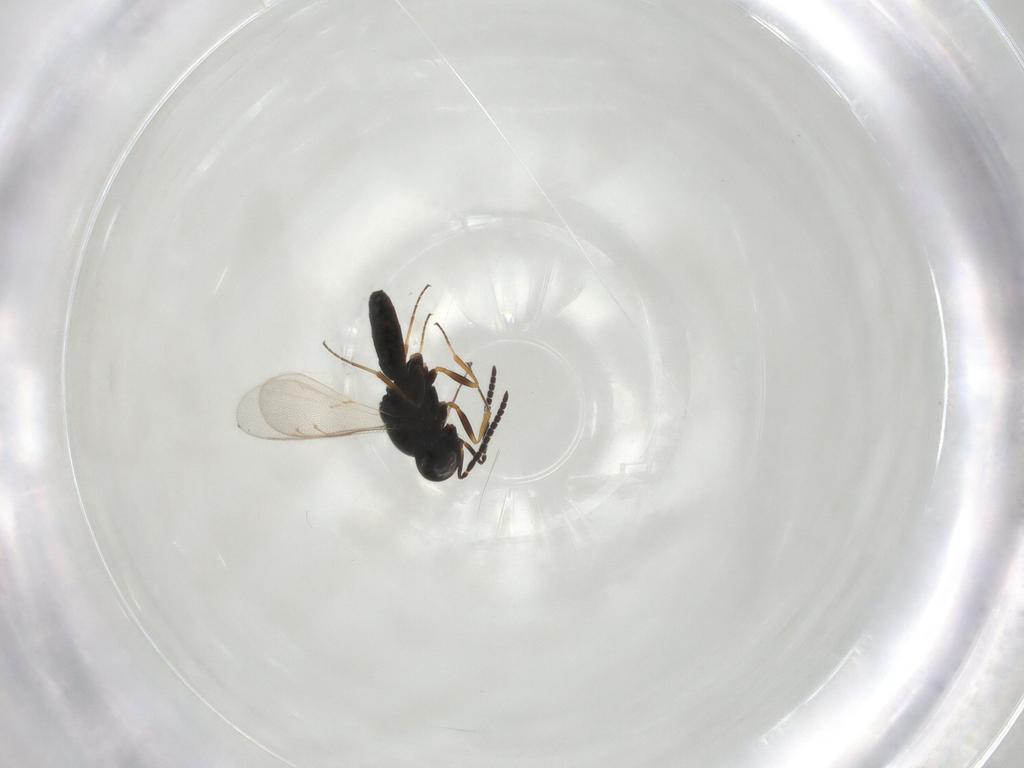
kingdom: Animalia
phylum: Arthropoda
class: Insecta
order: Hymenoptera
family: Scelionidae
